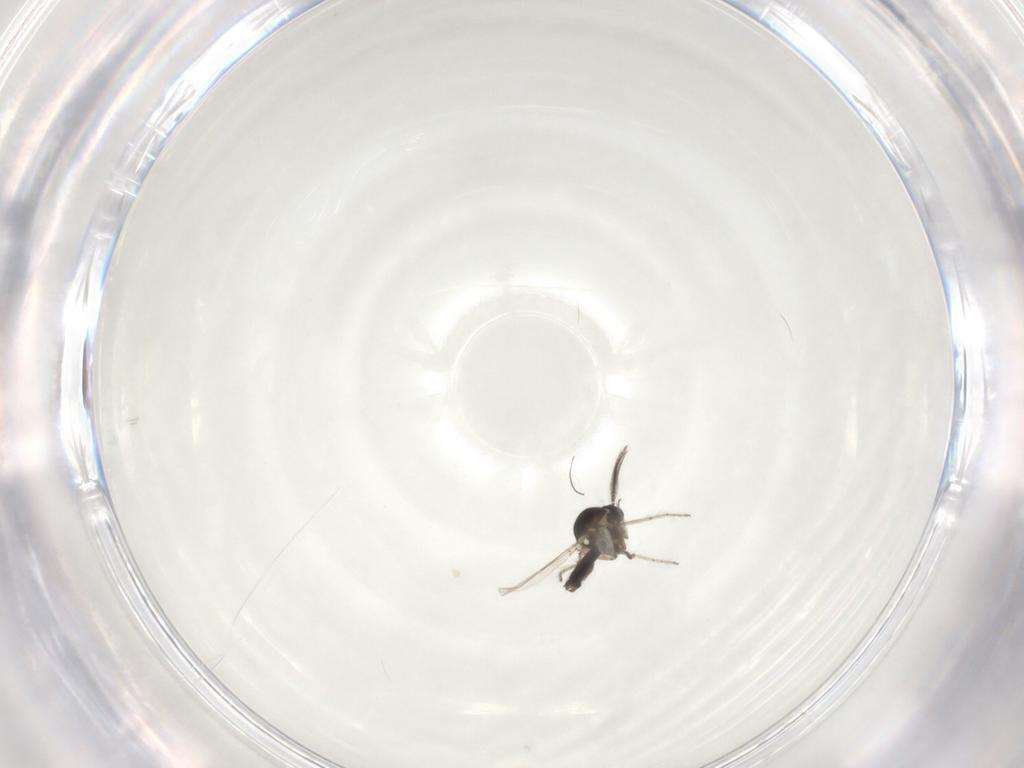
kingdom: Animalia
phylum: Arthropoda
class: Insecta
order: Diptera
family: Ceratopogonidae
